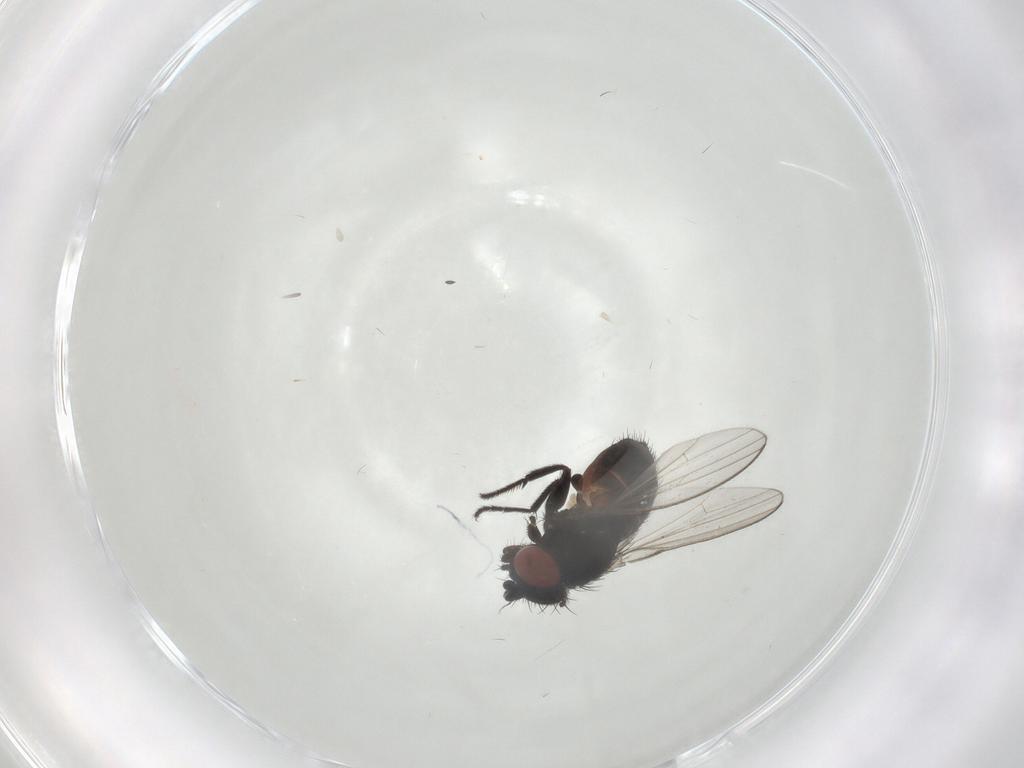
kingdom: Animalia
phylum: Arthropoda
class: Insecta
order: Diptera
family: Milichiidae
